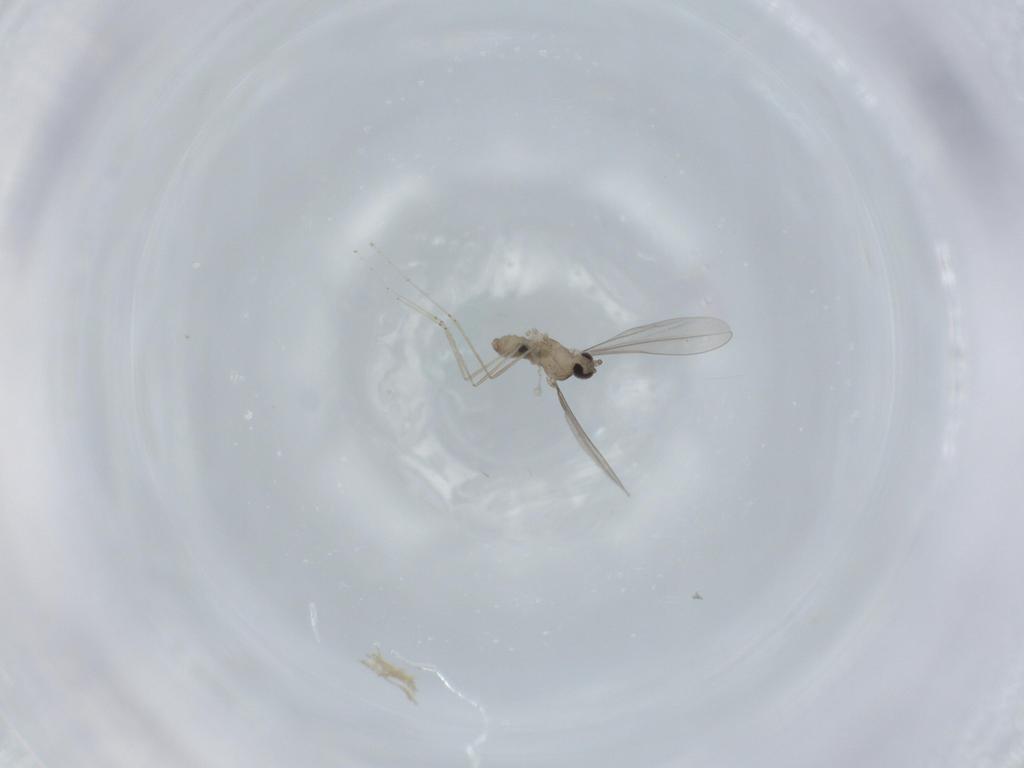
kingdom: Animalia
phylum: Arthropoda
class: Insecta
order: Diptera
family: Cecidomyiidae
